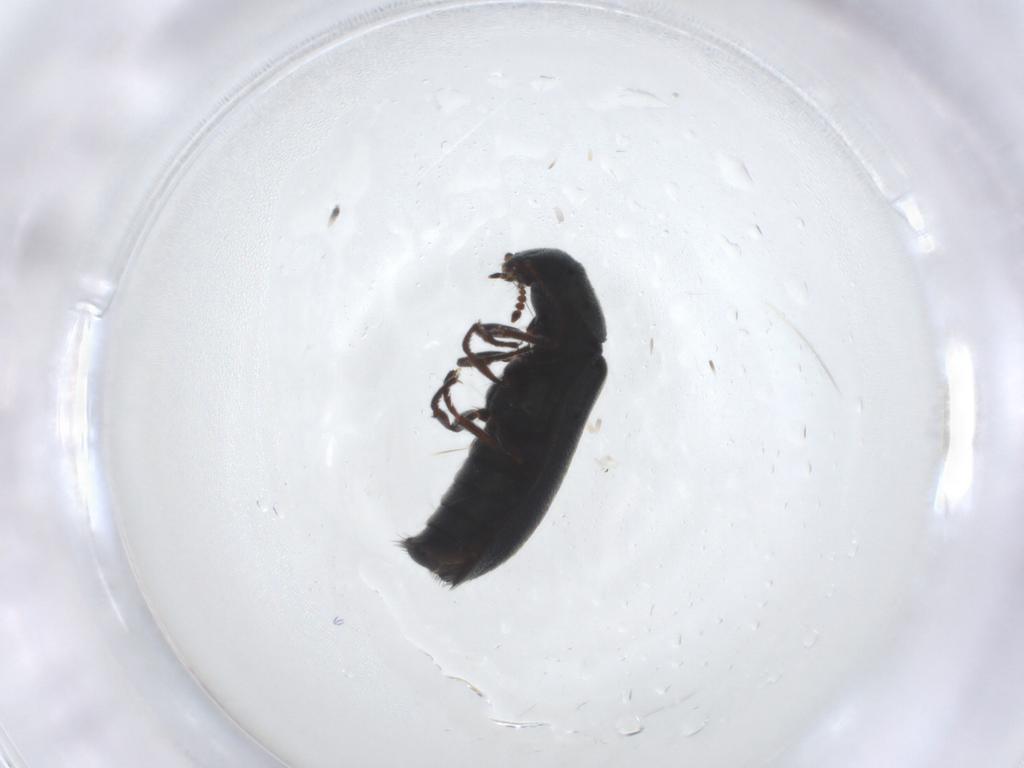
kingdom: Animalia
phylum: Arthropoda
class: Insecta
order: Coleoptera
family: Melyridae
